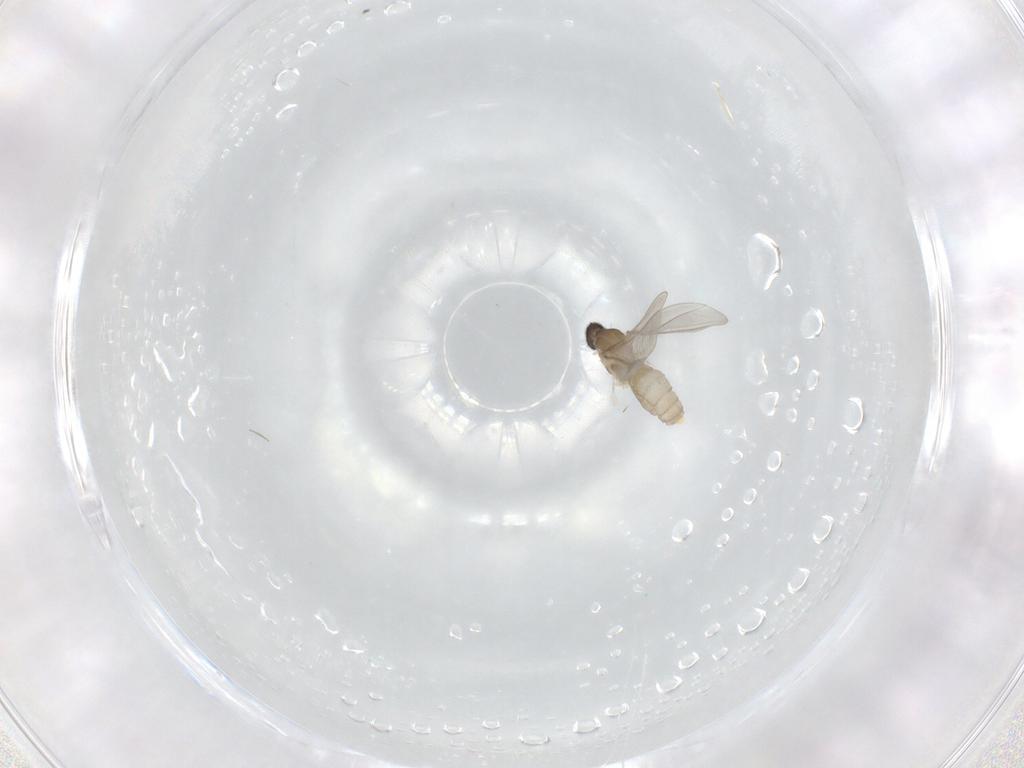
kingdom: Animalia
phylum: Arthropoda
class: Insecta
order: Diptera
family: Cecidomyiidae
